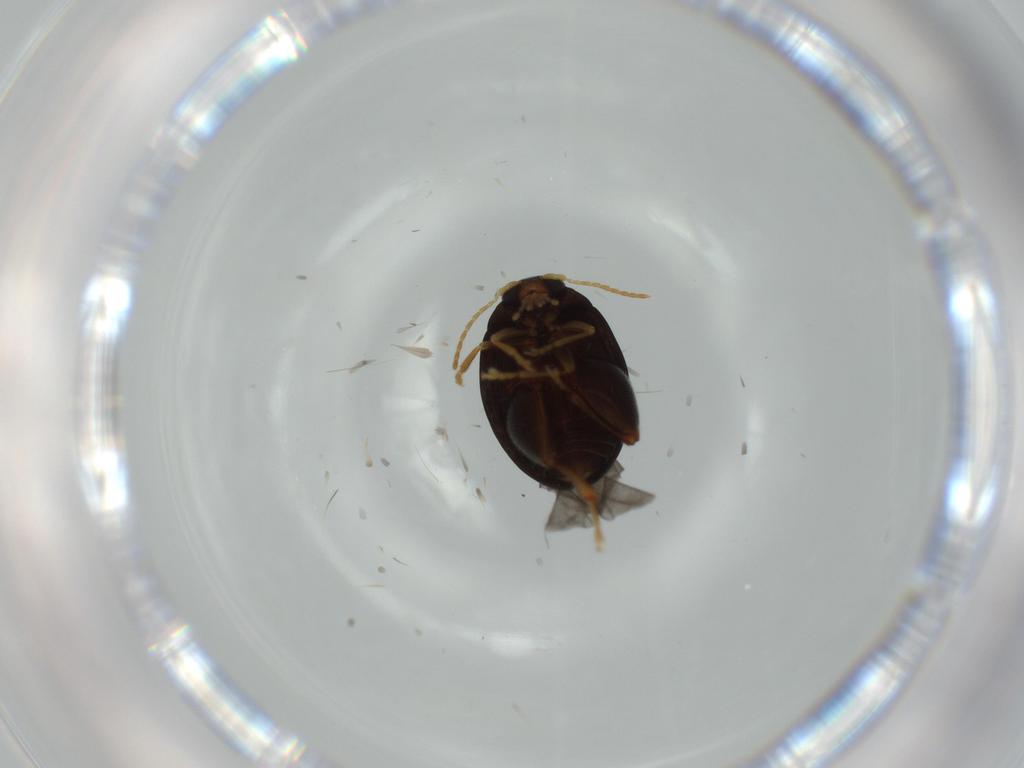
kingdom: Animalia
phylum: Arthropoda
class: Insecta
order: Coleoptera
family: Chrysomelidae
